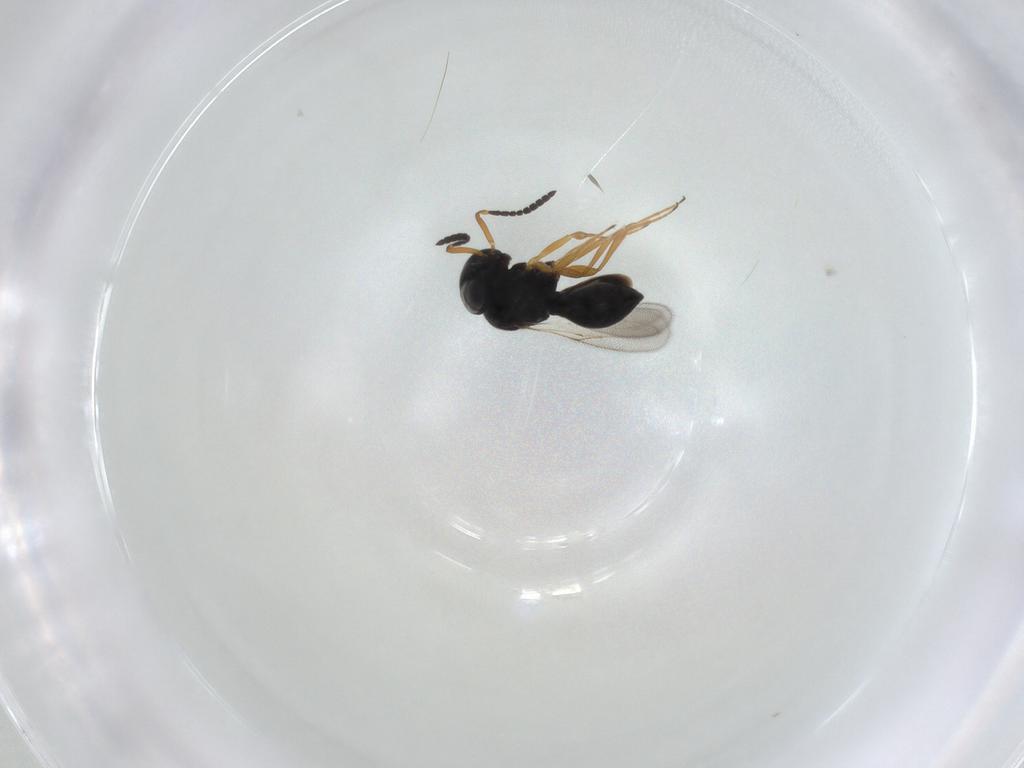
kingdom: Animalia
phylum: Arthropoda
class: Insecta
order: Hymenoptera
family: Scelionidae
